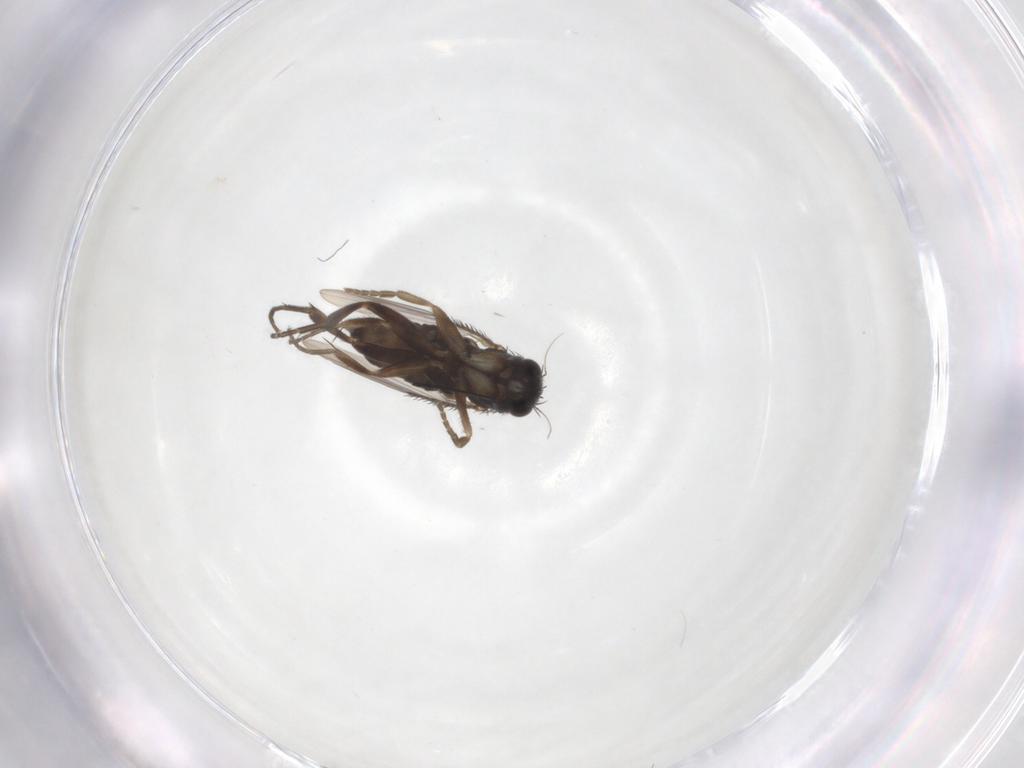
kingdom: Animalia
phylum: Arthropoda
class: Insecta
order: Diptera
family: Phoridae
